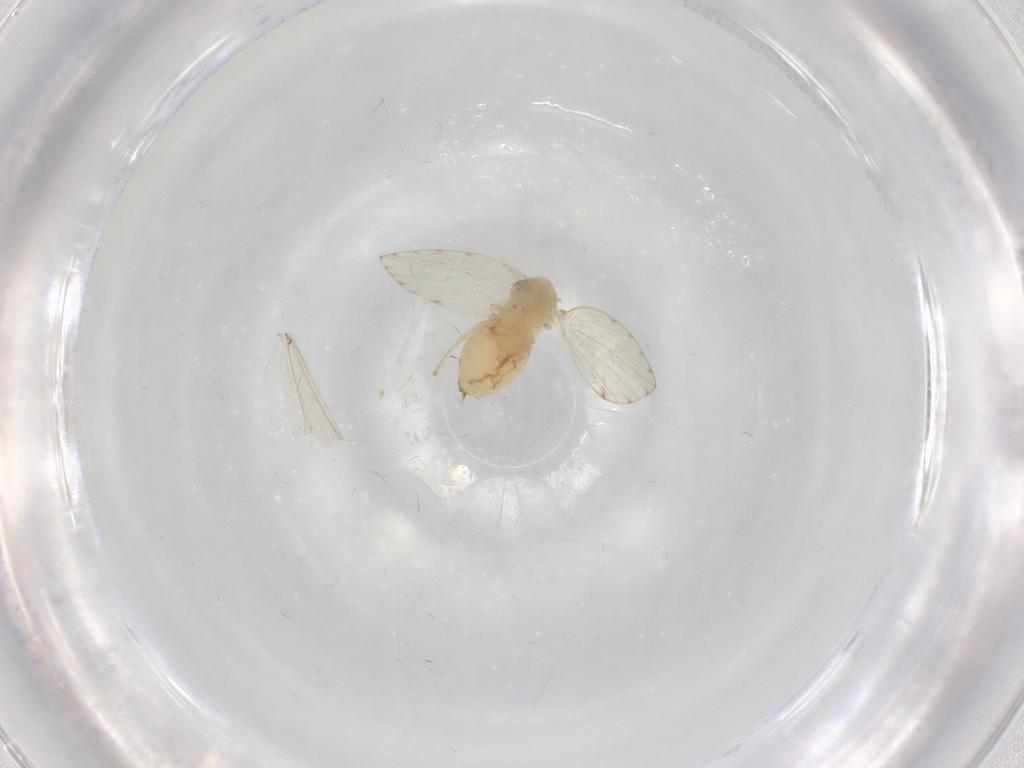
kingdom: Animalia
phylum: Arthropoda
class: Insecta
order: Diptera
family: Psychodidae
